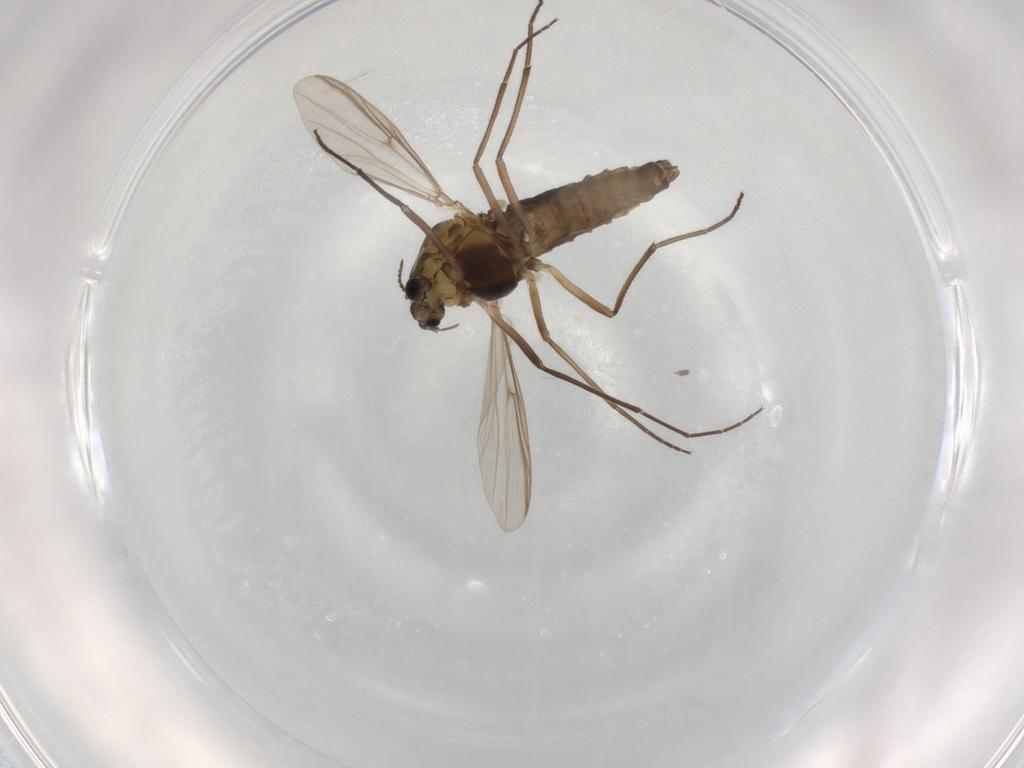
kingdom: Animalia
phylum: Arthropoda
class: Insecta
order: Diptera
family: Chironomidae
